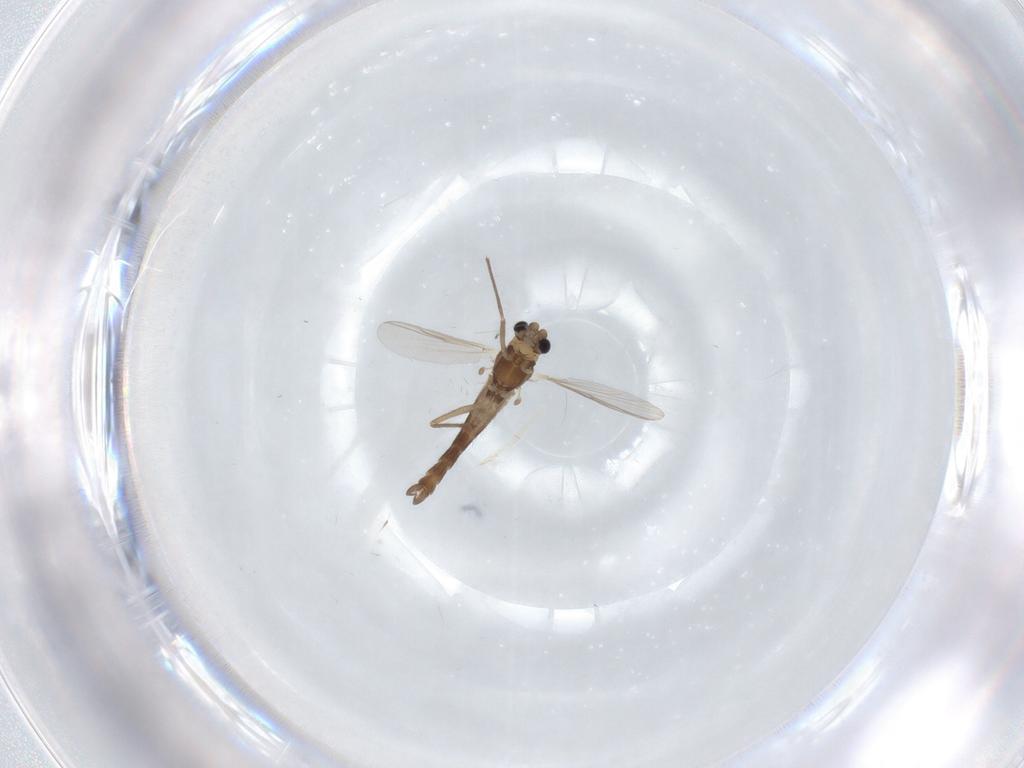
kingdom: Animalia
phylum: Arthropoda
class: Insecta
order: Diptera
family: Chironomidae
